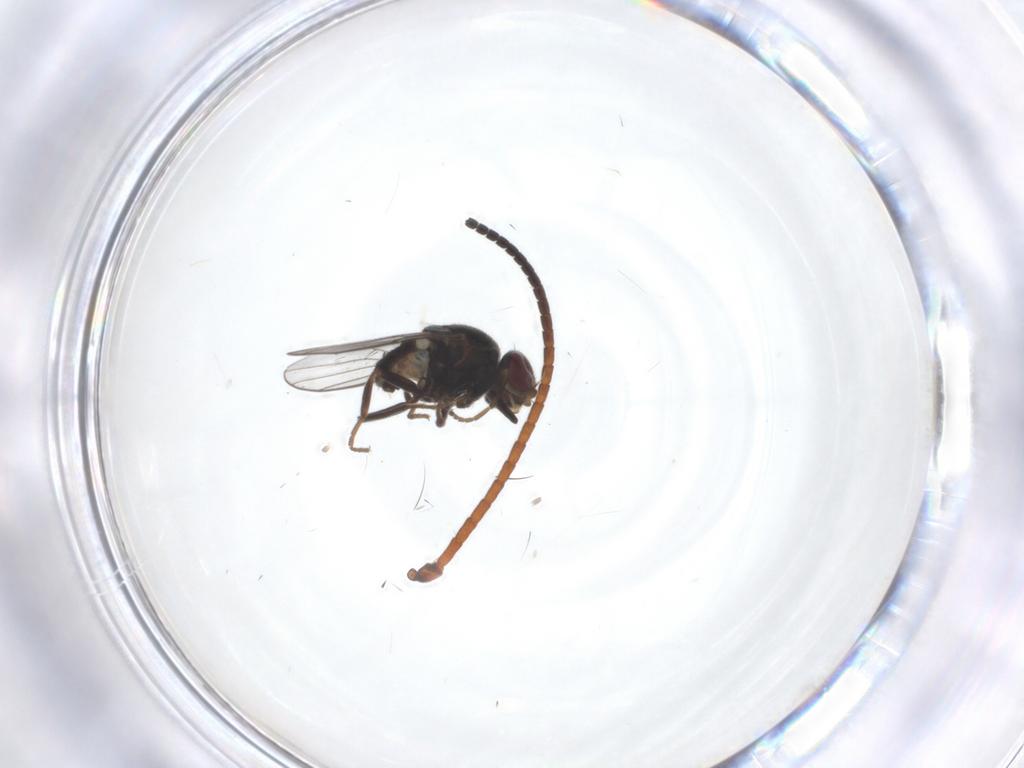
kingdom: Animalia
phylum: Arthropoda
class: Insecta
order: Diptera
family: Chloropidae
